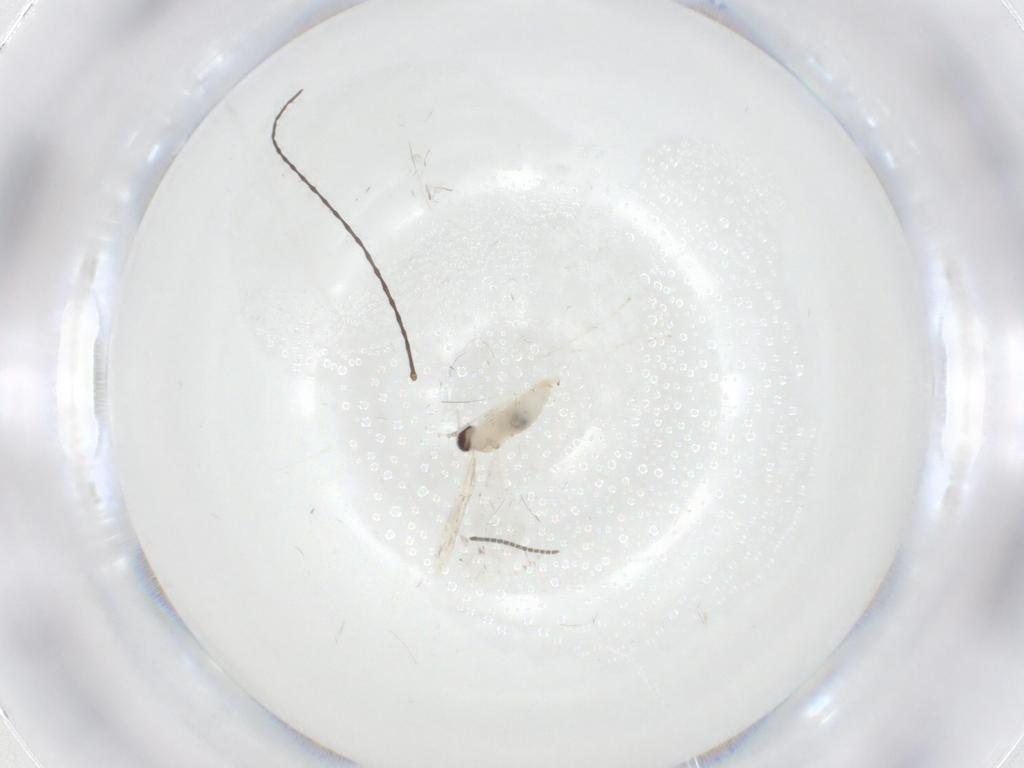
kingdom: Animalia
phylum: Arthropoda
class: Insecta
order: Diptera
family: Cecidomyiidae
